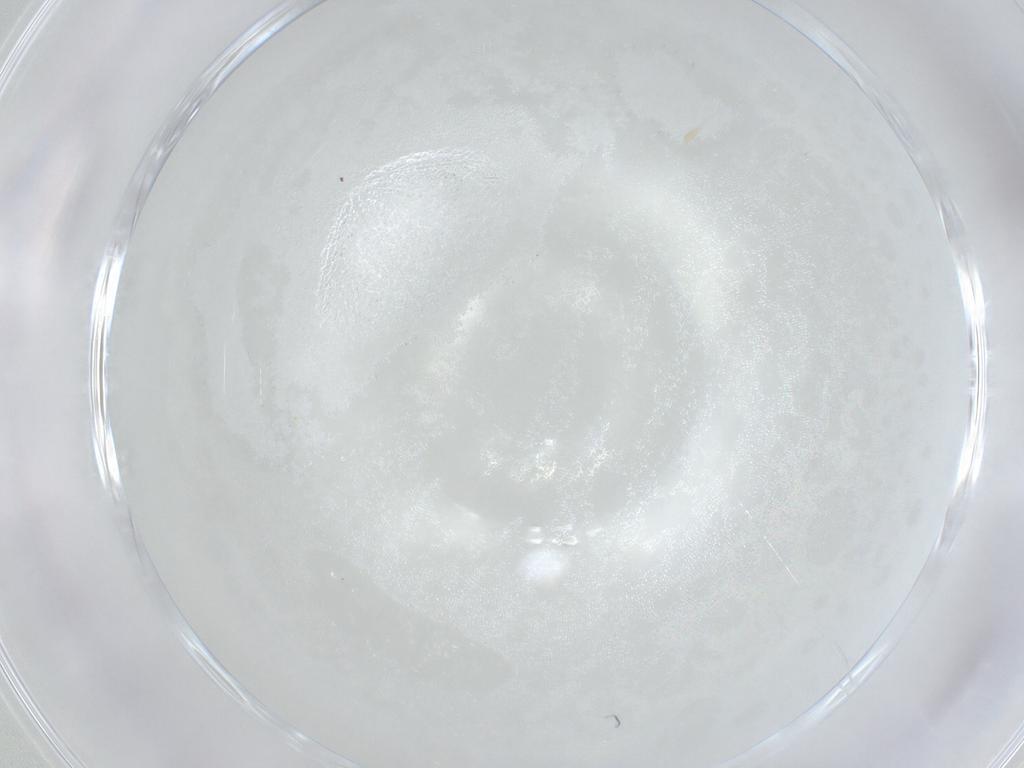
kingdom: Animalia
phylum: Arthropoda
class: Insecta
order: Hymenoptera
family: Mymaridae
